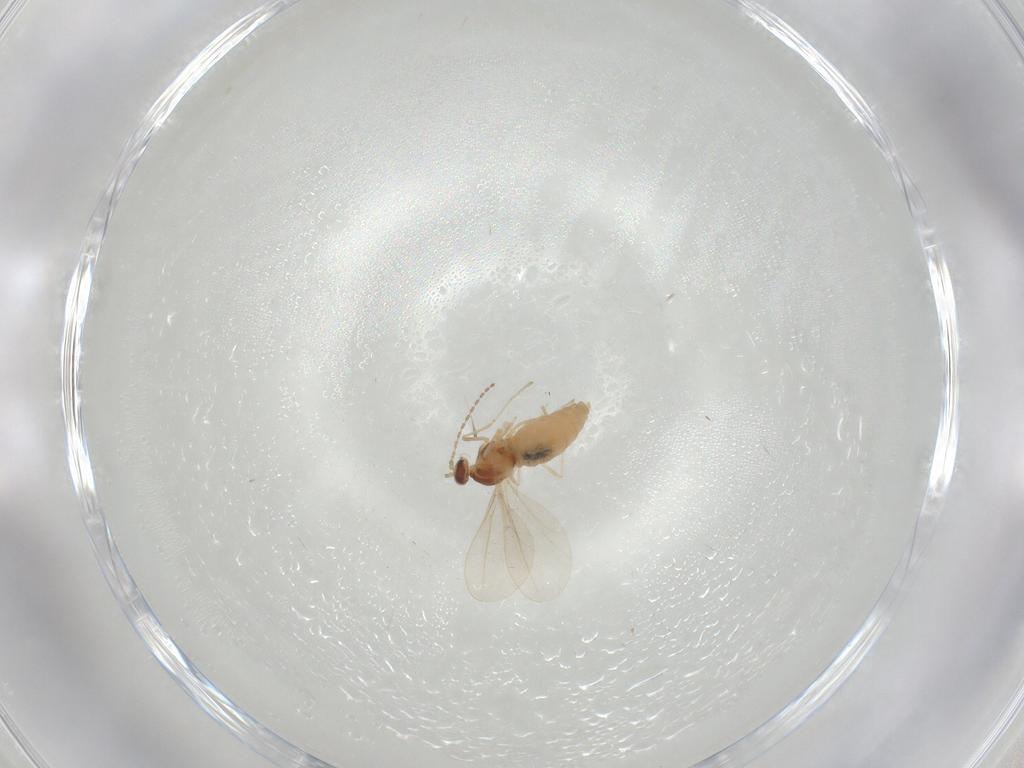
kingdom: Animalia
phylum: Arthropoda
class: Insecta
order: Diptera
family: Cecidomyiidae
